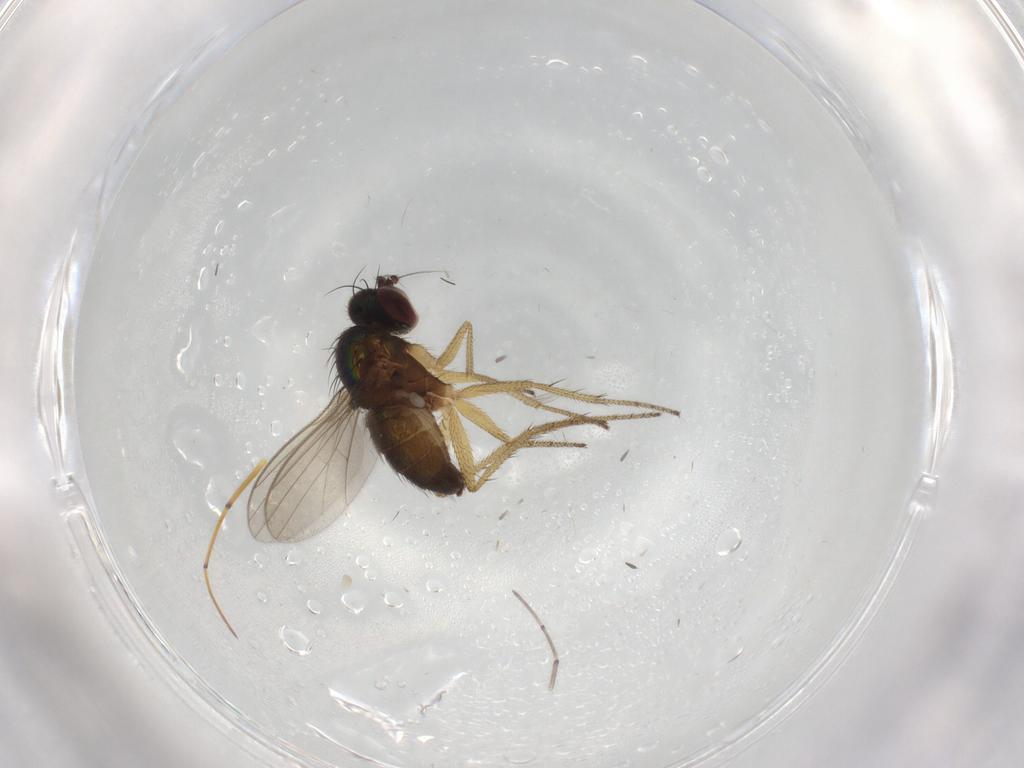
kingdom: Animalia
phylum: Arthropoda
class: Insecta
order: Diptera
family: Dolichopodidae
